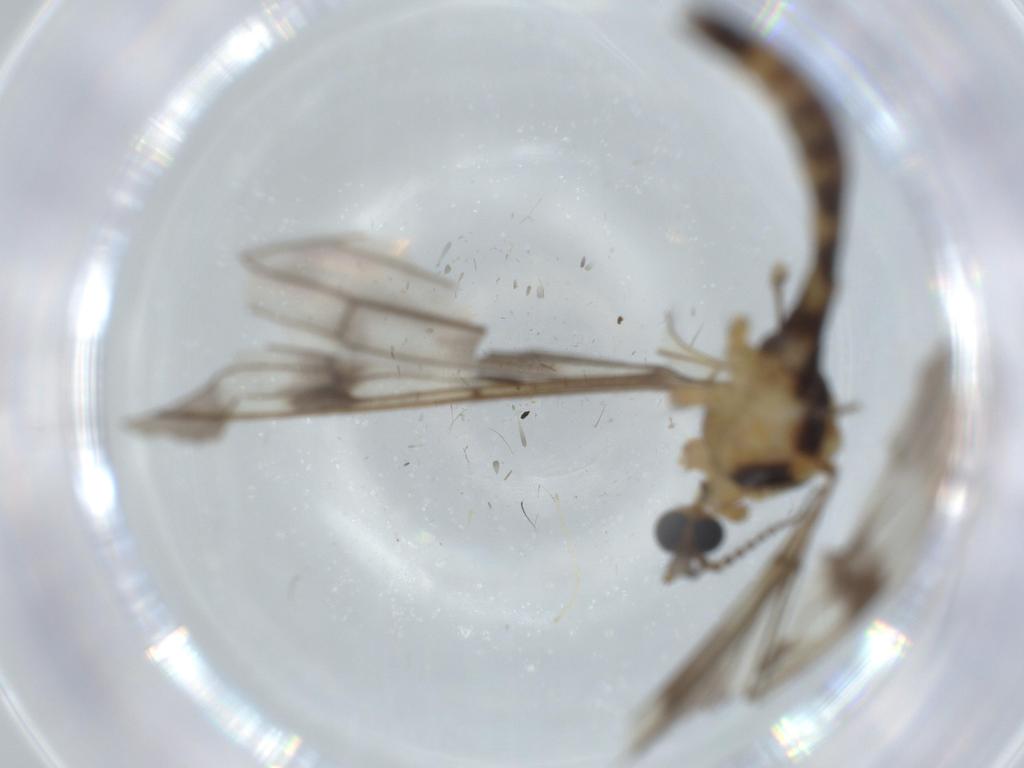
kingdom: Animalia
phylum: Arthropoda
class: Insecta
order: Diptera
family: Chironomidae
